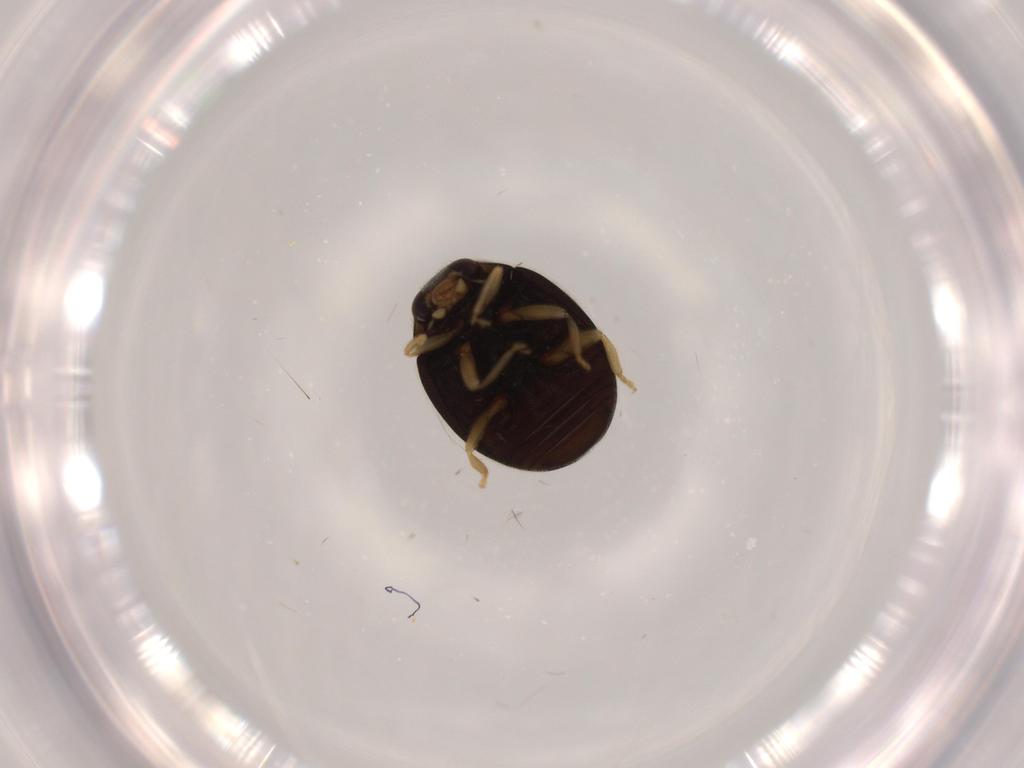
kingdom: Animalia
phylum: Arthropoda
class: Insecta
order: Coleoptera
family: Coccinellidae
